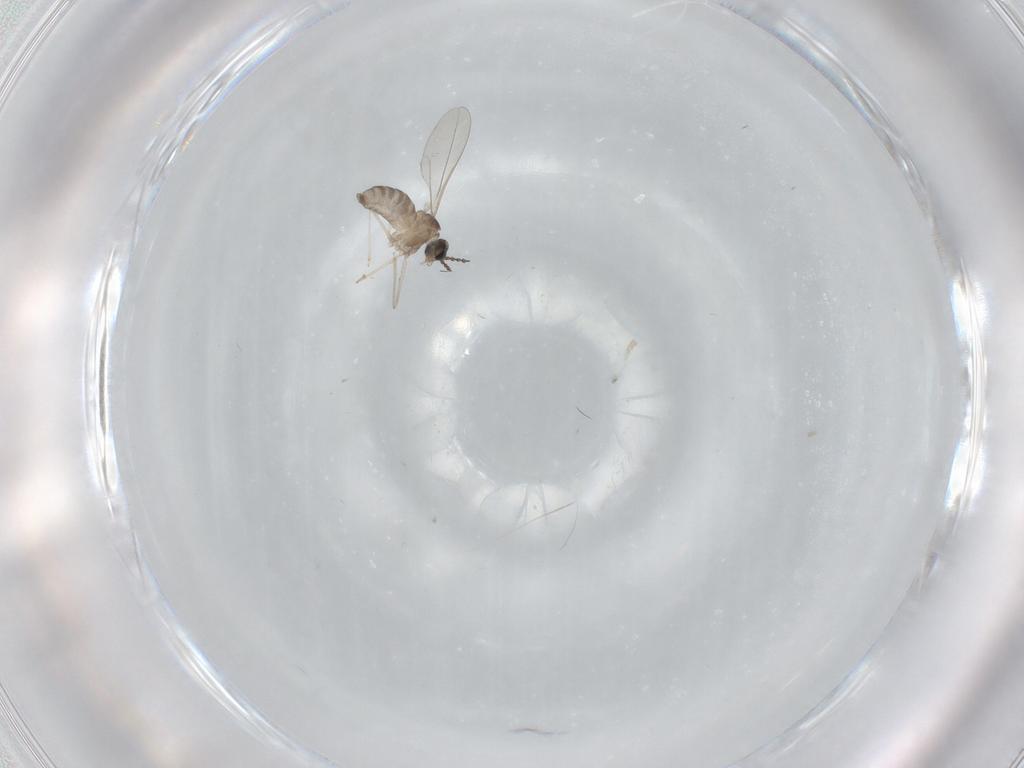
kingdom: Animalia
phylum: Arthropoda
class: Insecta
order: Diptera
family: Cecidomyiidae
